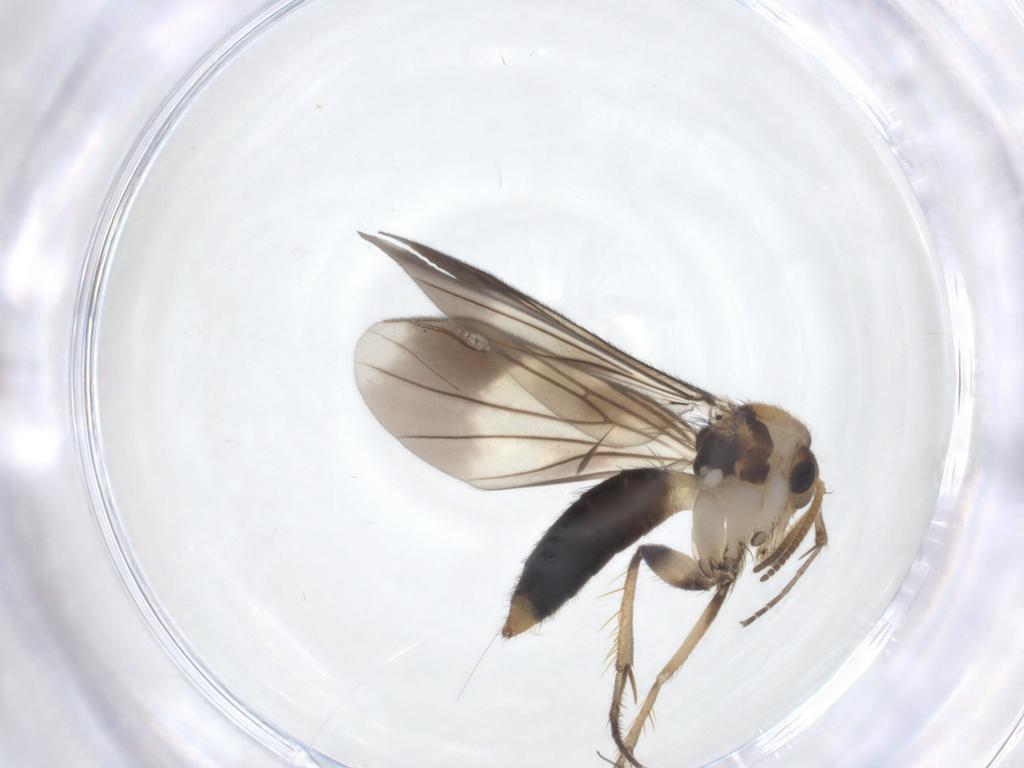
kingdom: Animalia
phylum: Arthropoda
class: Insecta
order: Diptera
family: Mycetophilidae
